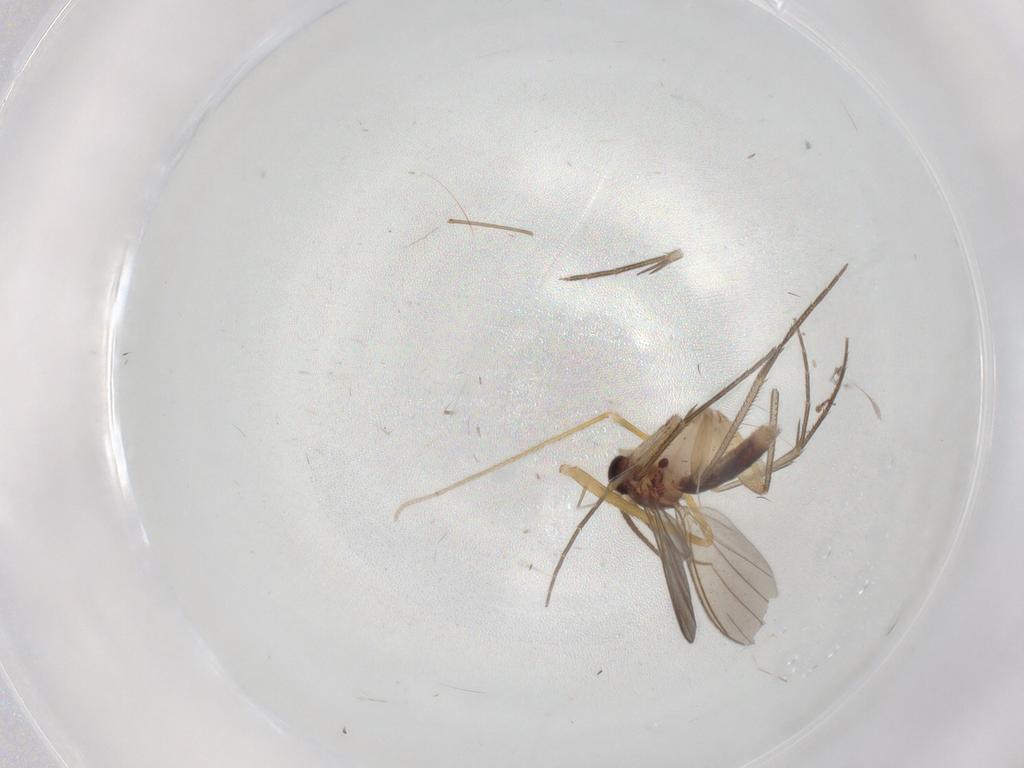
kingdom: Animalia
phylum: Arthropoda
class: Insecta
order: Diptera
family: Mycetophilidae
